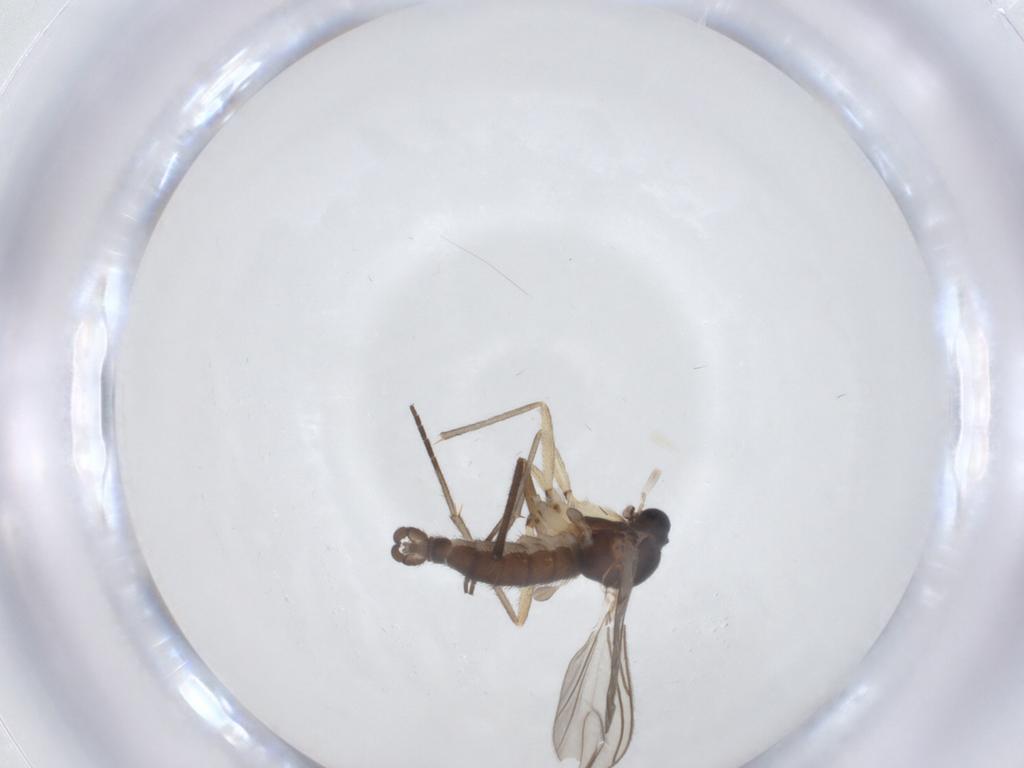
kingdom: Animalia
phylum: Arthropoda
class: Insecta
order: Diptera
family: Sciaridae
